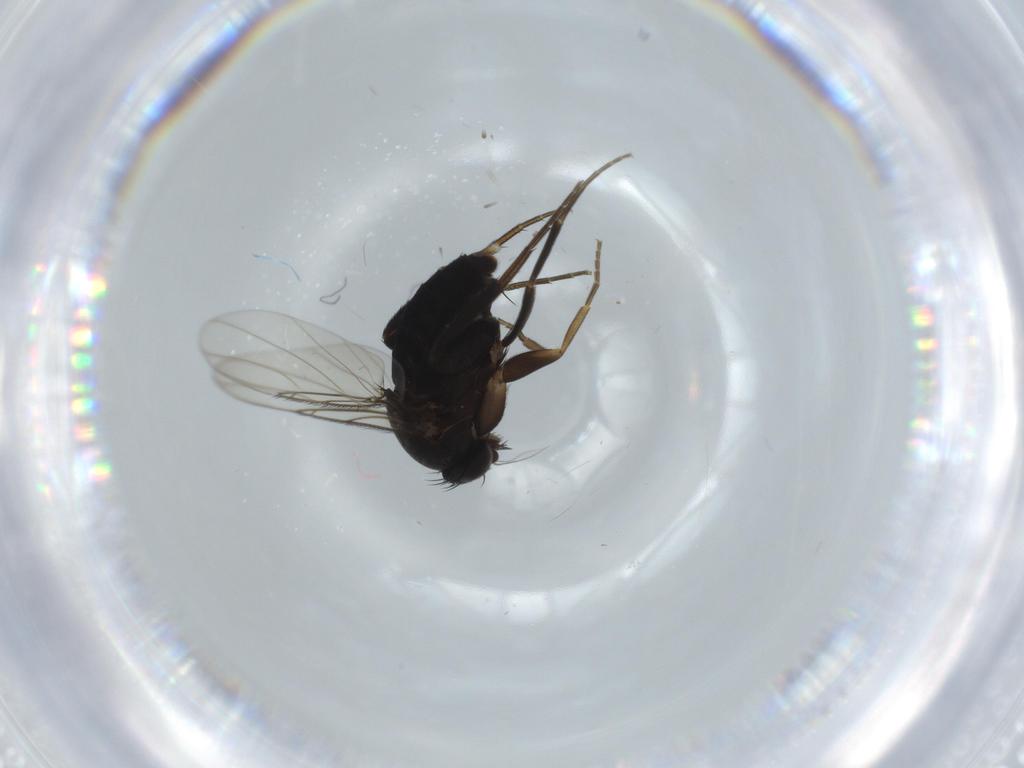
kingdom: Animalia
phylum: Arthropoda
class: Insecta
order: Diptera
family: Phoridae
